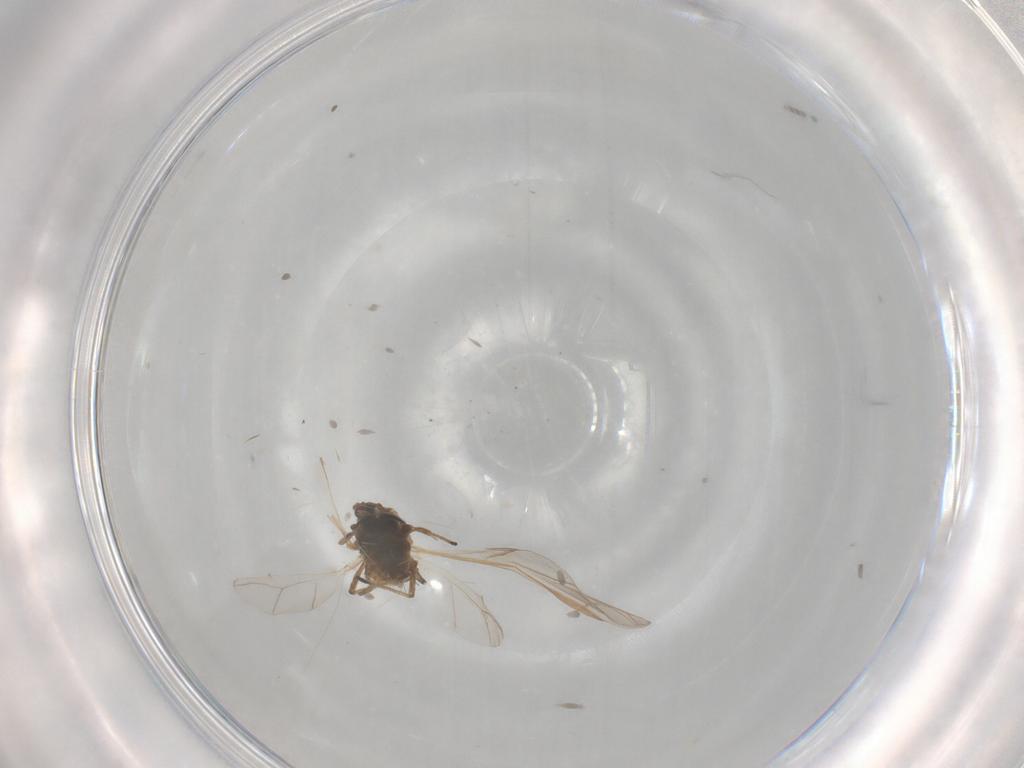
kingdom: Animalia
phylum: Arthropoda
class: Insecta
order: Hemiptera
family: Aphididae
